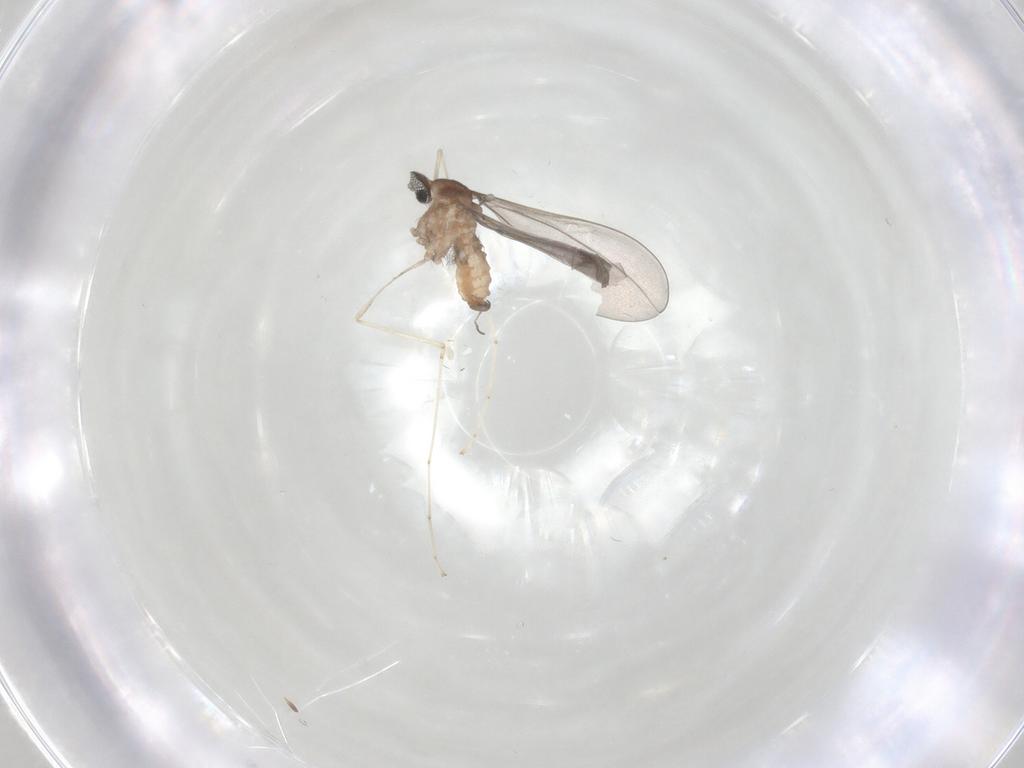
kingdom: Animalia
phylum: Arthropoda
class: Insecta
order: Diptera
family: Cecidomyiidae
